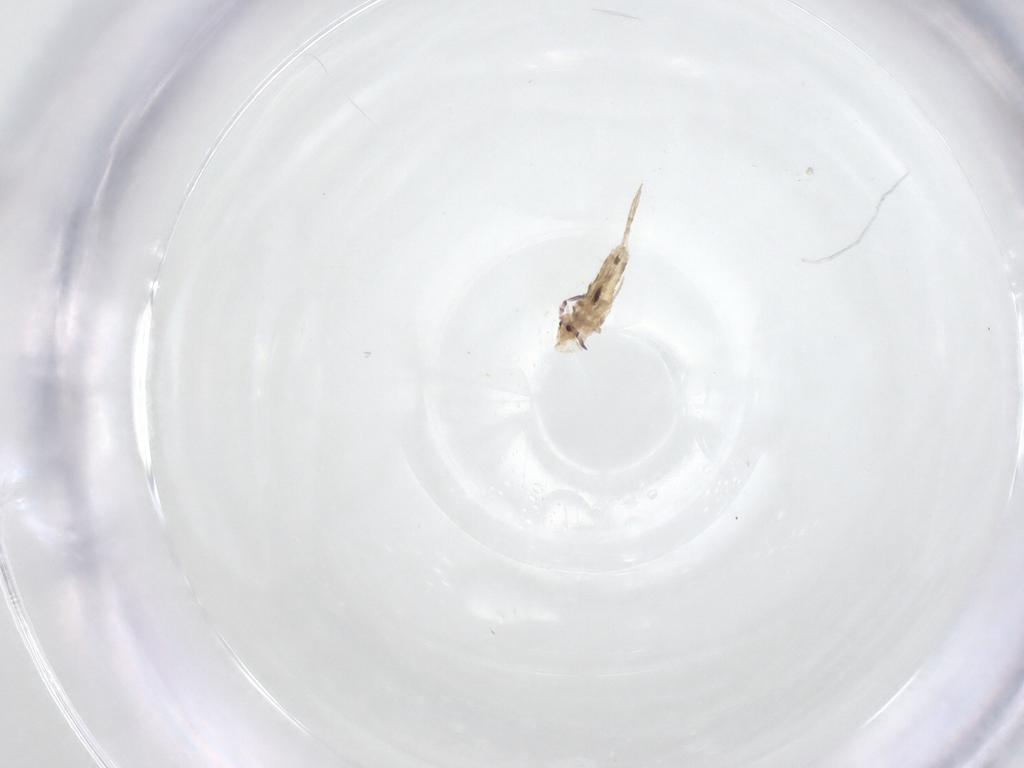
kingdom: Animalia
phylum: Arthropoda
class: Collembola
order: Entomobryomorpha
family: Entomobryidae
